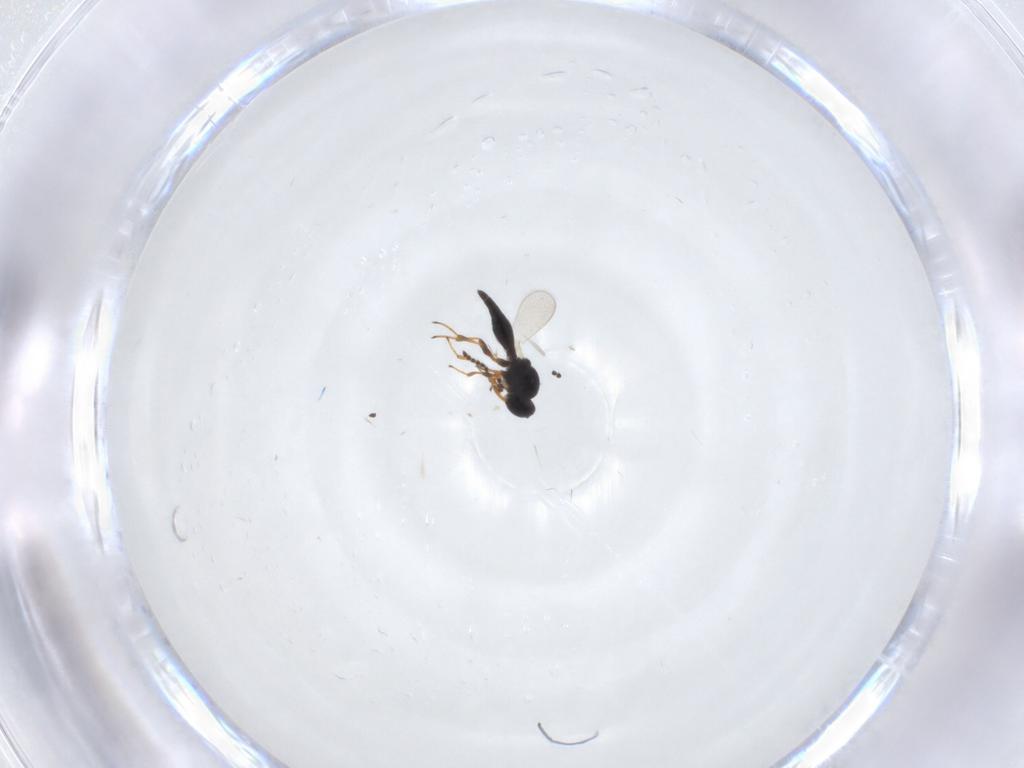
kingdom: Animalia
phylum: Arthropoda
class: Insecta
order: Hymenoptera
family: Platygastridae
